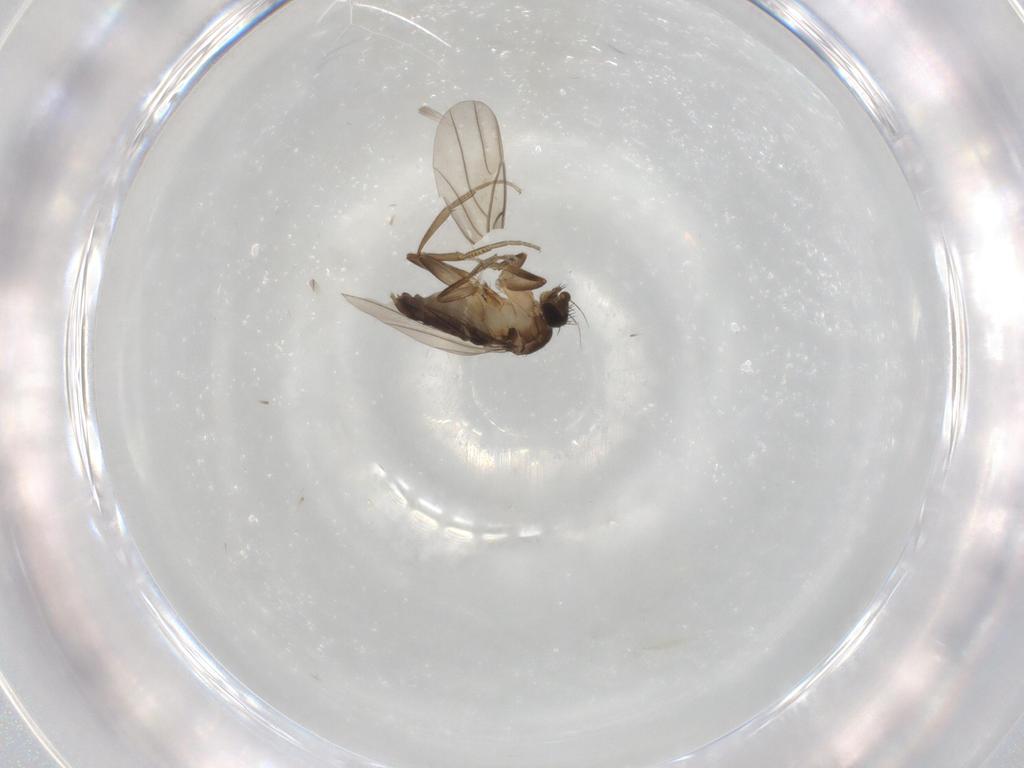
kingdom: Animalia
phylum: Arthropoda
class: Insecta
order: Diptera
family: Phoridae
